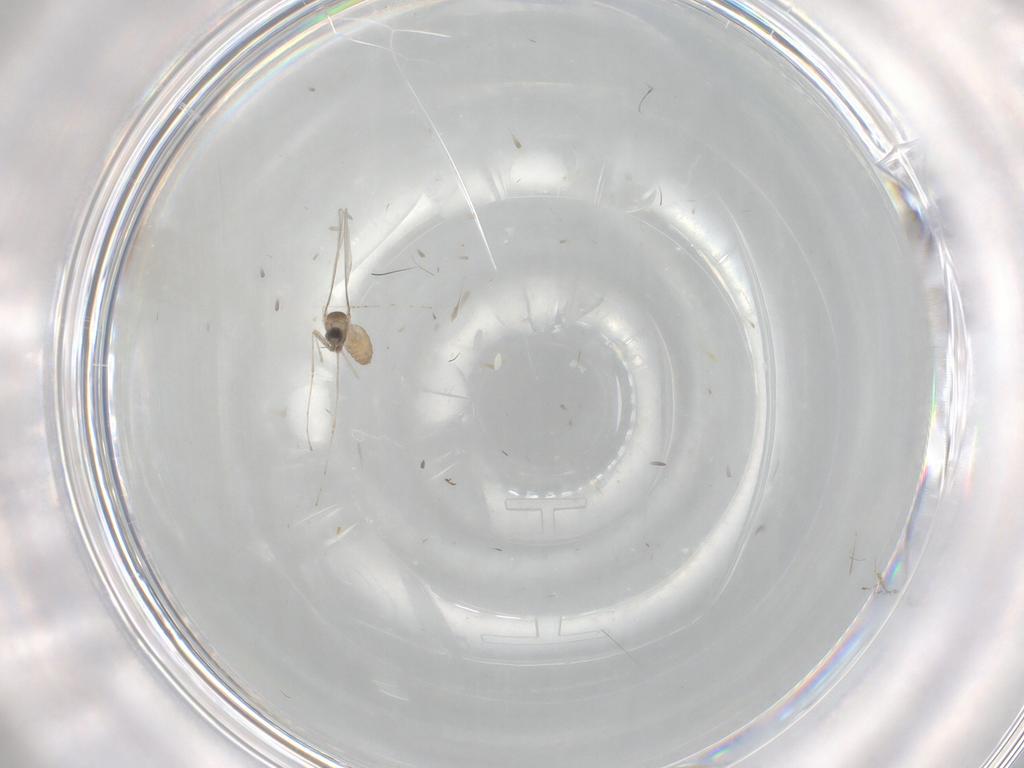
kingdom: Animalia
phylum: Arthropoda
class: Insecta
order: Diptera
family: Cecidomyiidae
